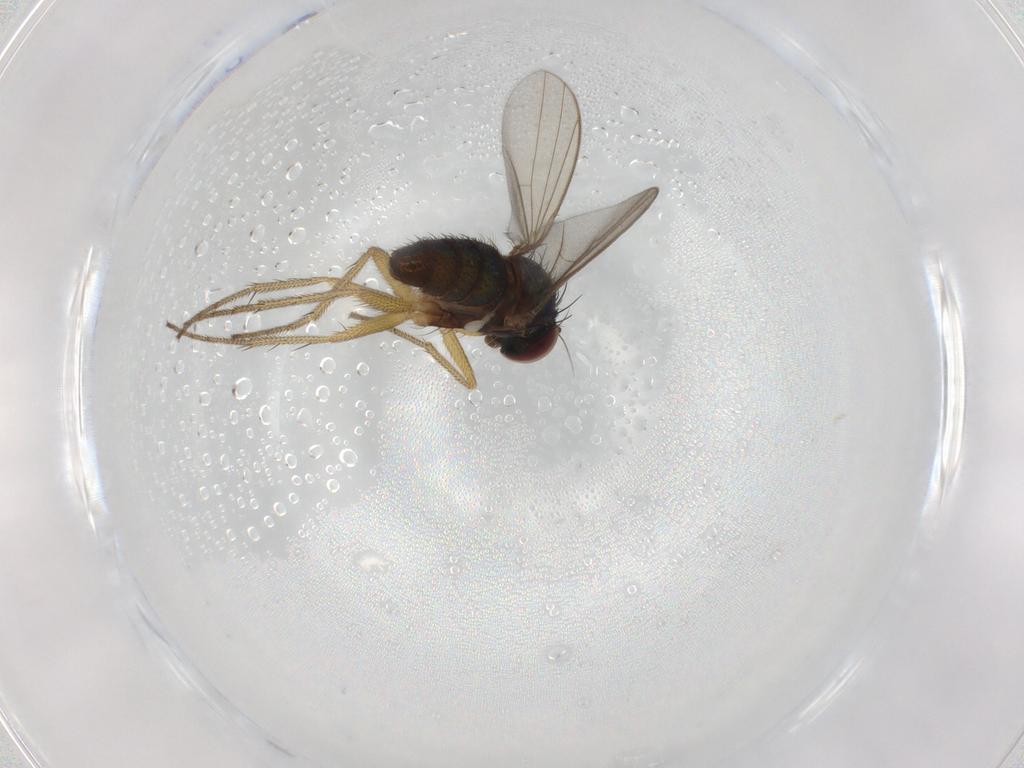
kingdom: Animalia
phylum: Arthropoda
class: Insecta
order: Diptera
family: Dolichopodidae
